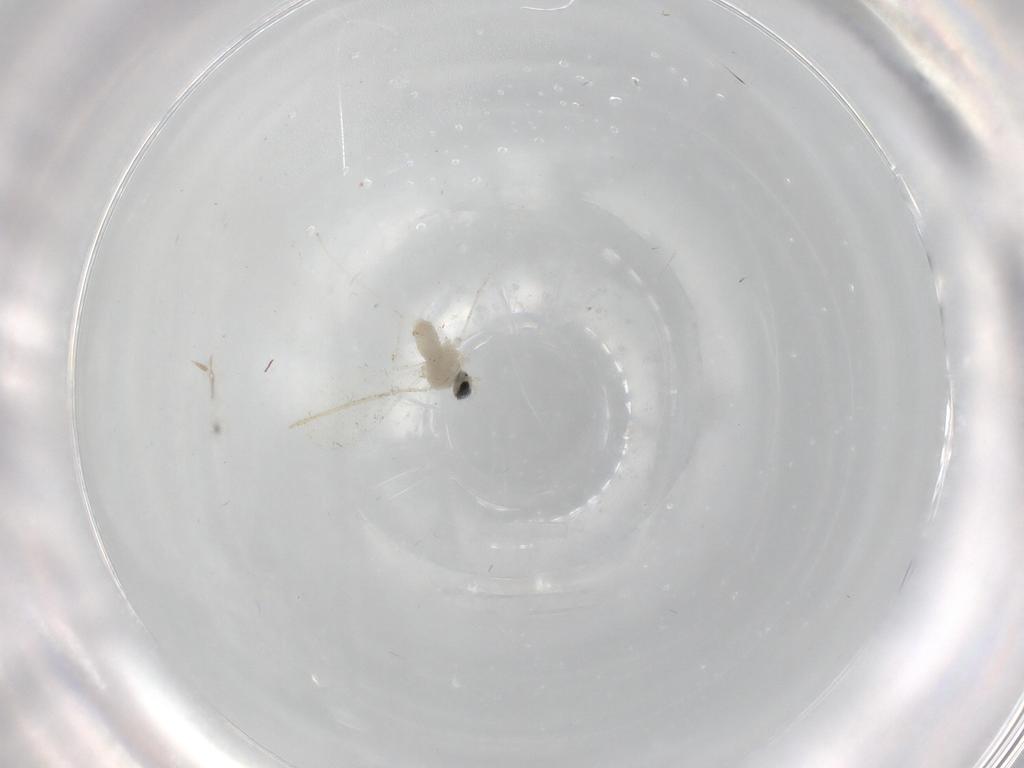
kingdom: Animalia
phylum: Arthropoda
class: Insecta
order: Diptera
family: Cecidomyiidae
